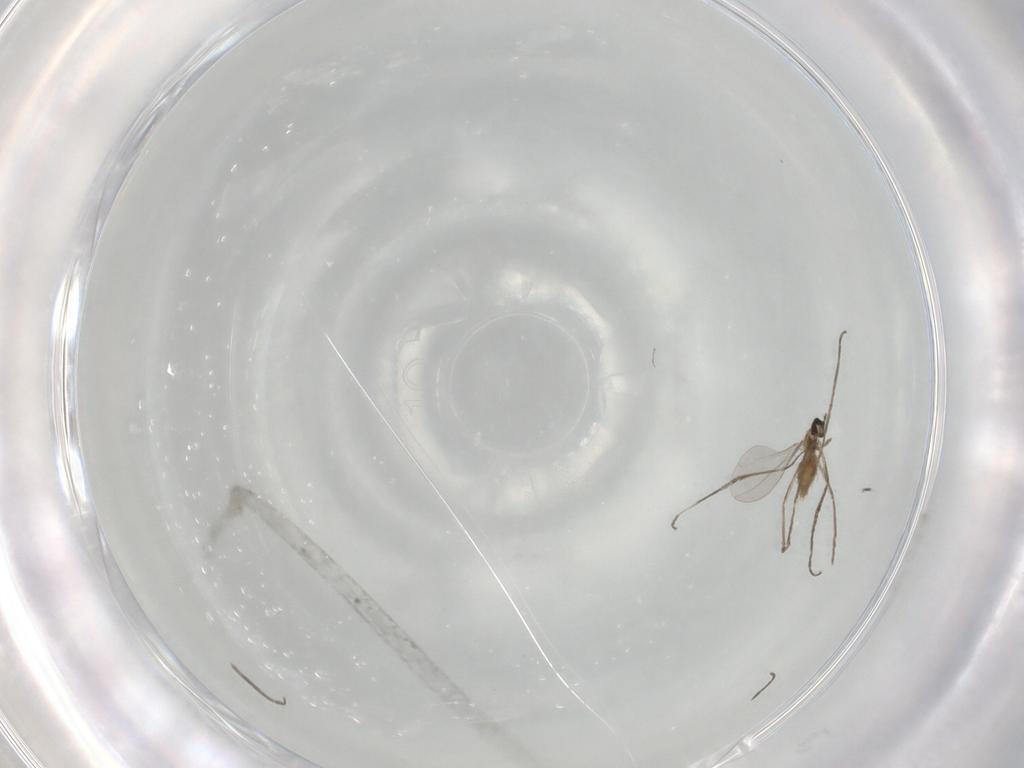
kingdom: Animalia
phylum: Arthropoda
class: Insecta
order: Diptera
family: Cecidomyiidae
